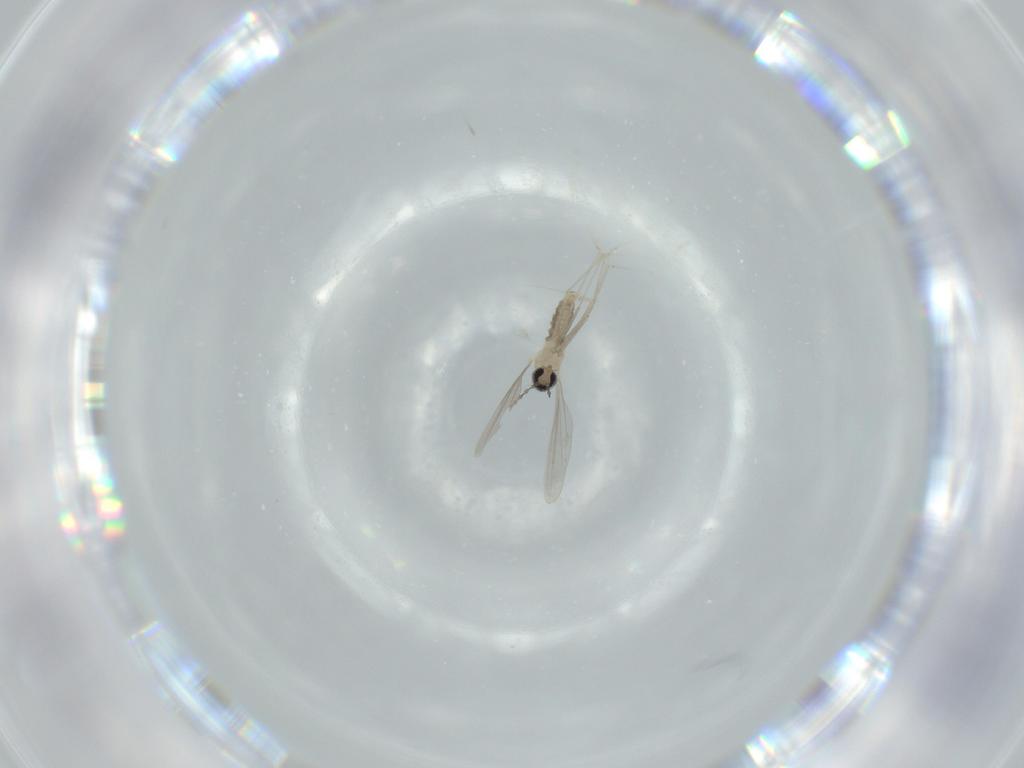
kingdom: Animalia
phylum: Arthropoda
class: Insecta
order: Diptera
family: Cecidomyiidae
